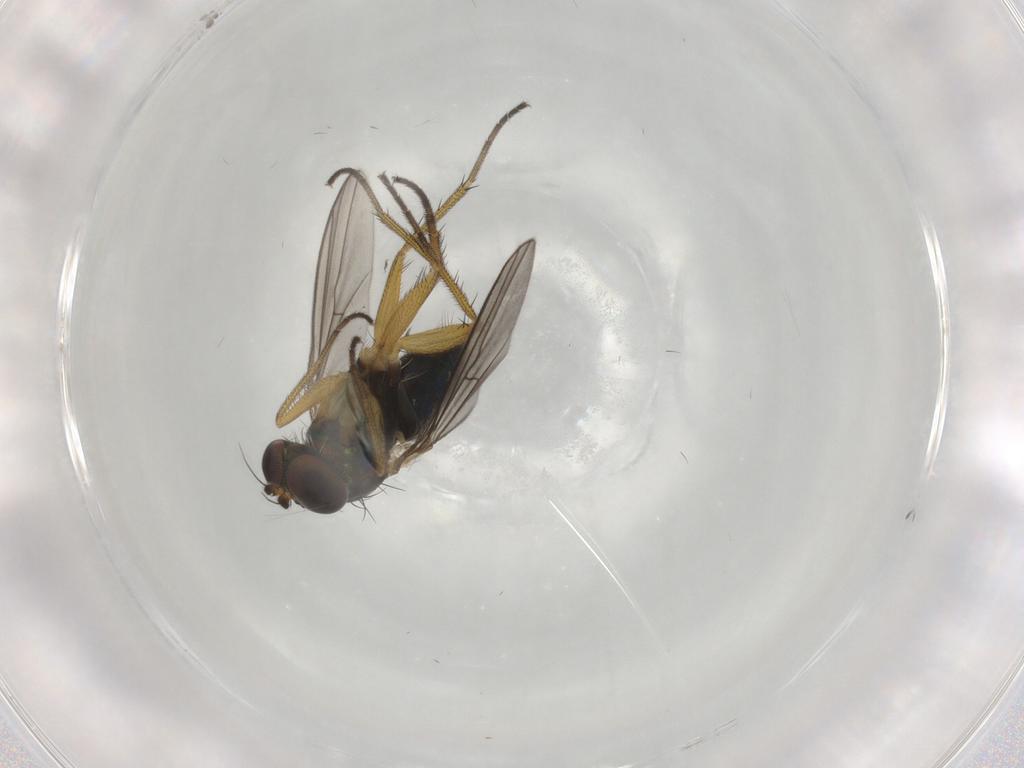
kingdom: Animalia
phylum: Arthropoda
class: Insecta
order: Diptera
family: Dolichopodidae
